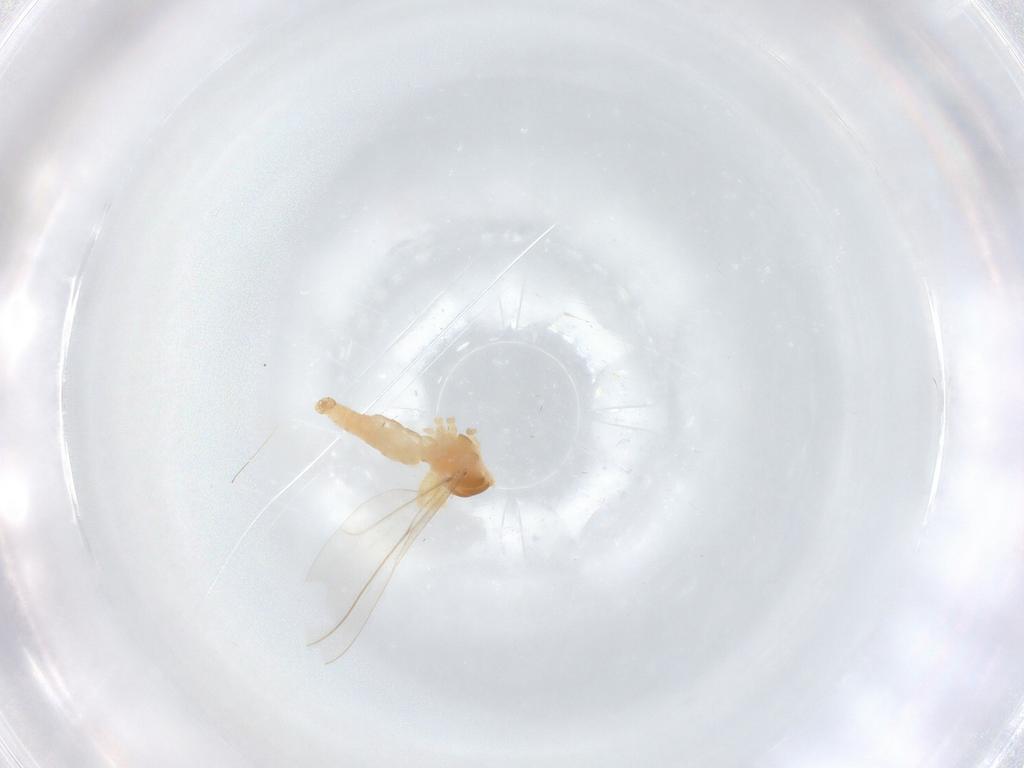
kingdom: Animalia
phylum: Arthropoda
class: Insecta
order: Diptera
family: Chironomidae
